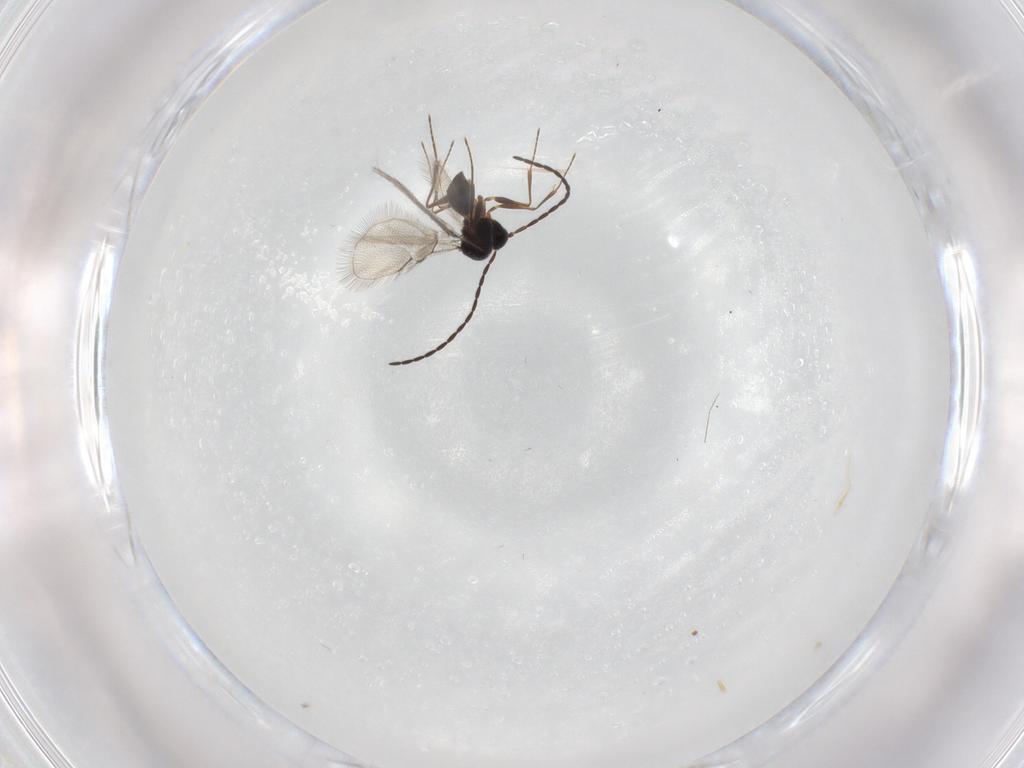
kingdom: Animalia
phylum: Arthropoda
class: Insecta
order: Hymenoptera
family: Figitidae
